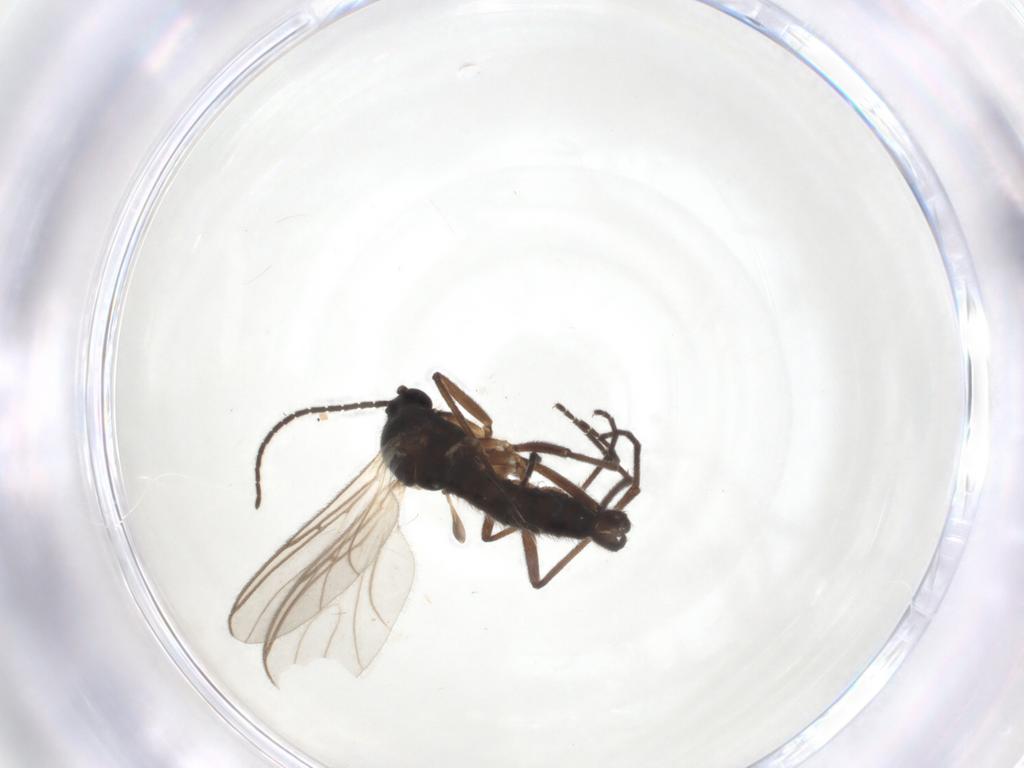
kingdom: Animalia
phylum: Arthropoda
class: Insecta
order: Diptera
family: Sciaridae
